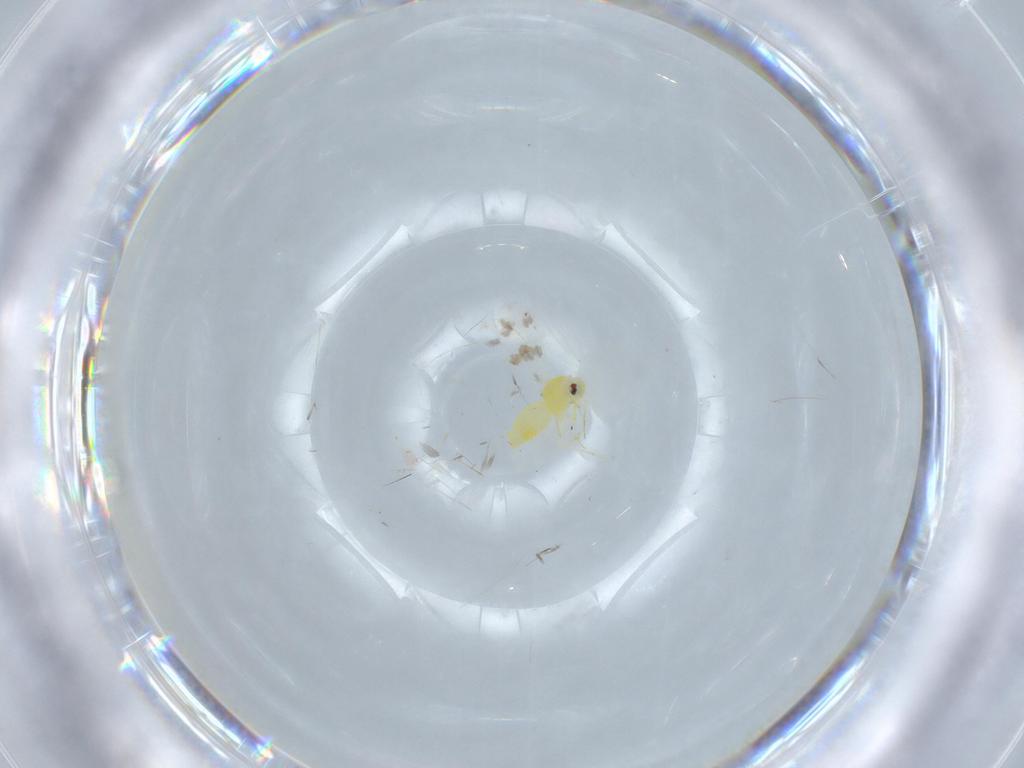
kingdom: Animalia
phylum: Arthropoda
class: Insecta
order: Hemiptera
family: Aleyrodidae
